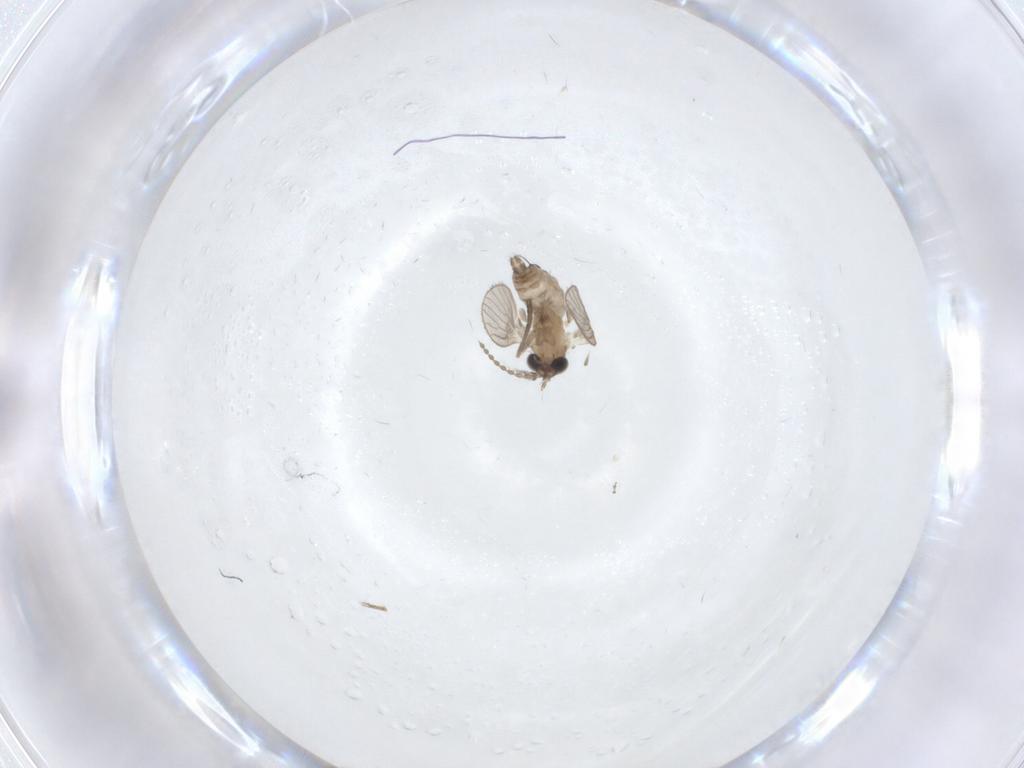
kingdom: Animalia
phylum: Arthropoda
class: Insecta
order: Diptera
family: Psychodidae
